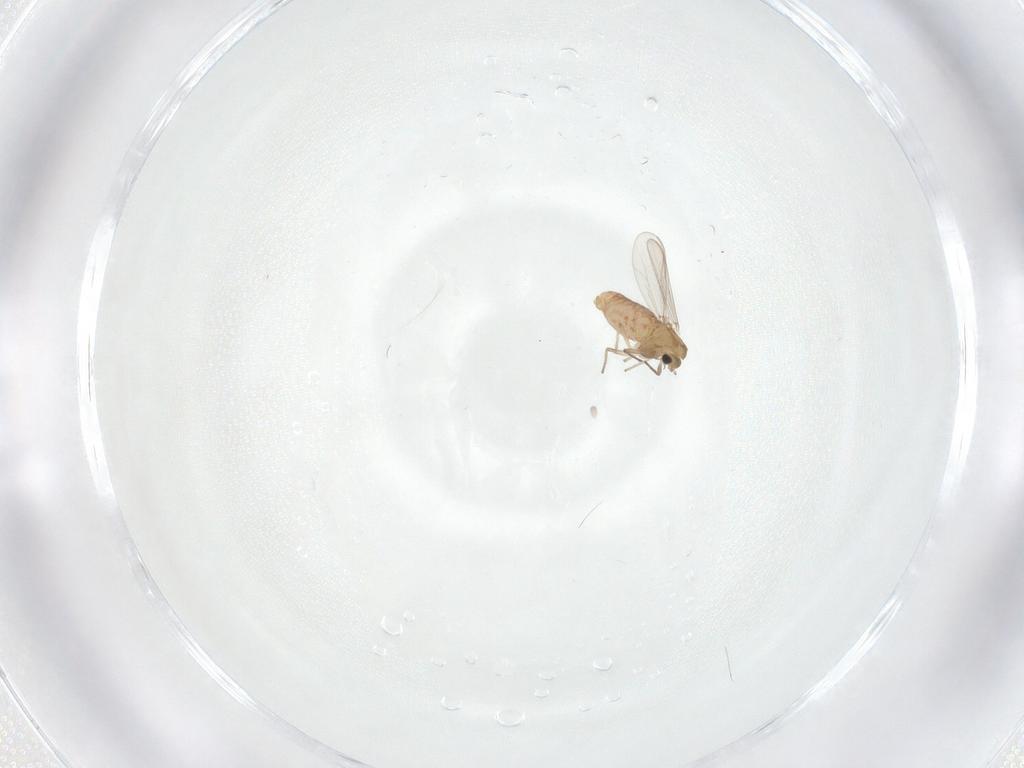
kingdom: Animalia
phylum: Arthropoda
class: Insecta
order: Diptera
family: Chironomidae
